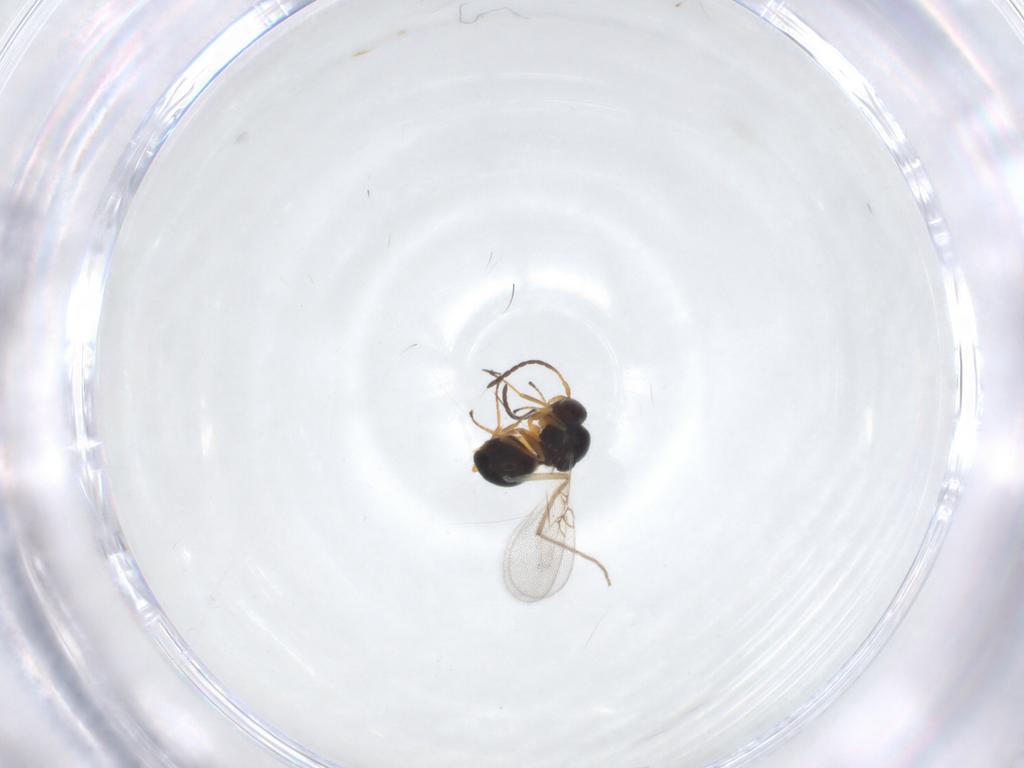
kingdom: Animalia
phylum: Arthropoda
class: Insecta
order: Hymenoptera
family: Figitidae
